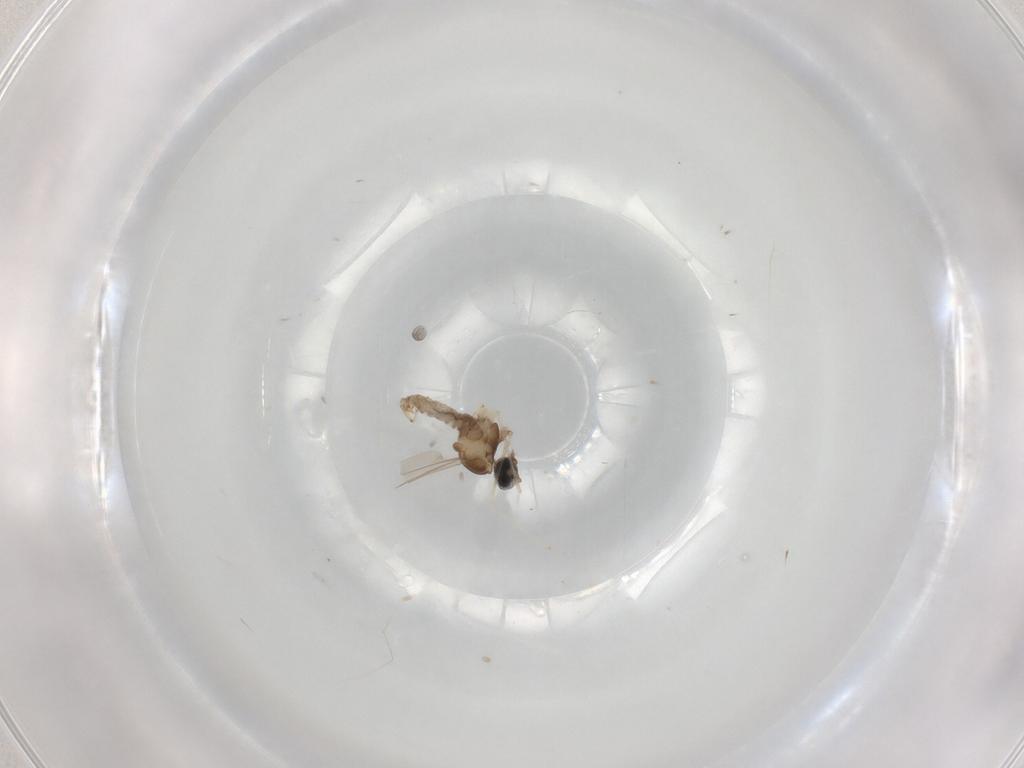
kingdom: Animalia
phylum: Arthropoda
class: Insecta
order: Diptera
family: Cecidomyiidae
